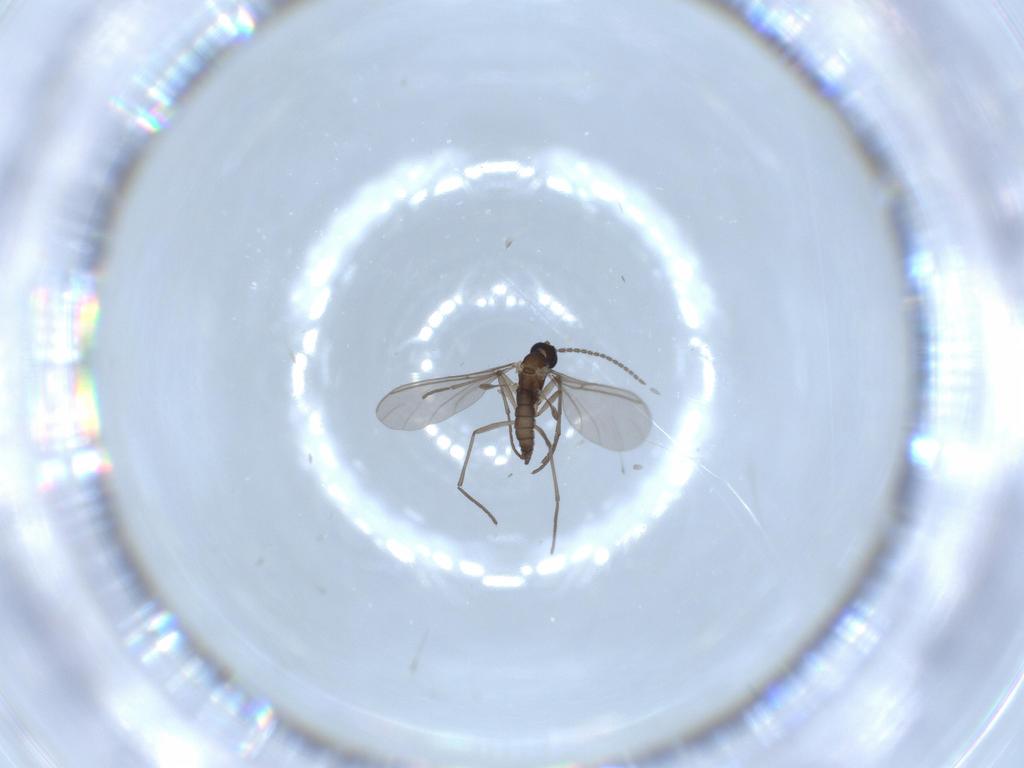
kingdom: Animalia
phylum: Arthropoda
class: Insecta
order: Diptera
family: Sciaridae
